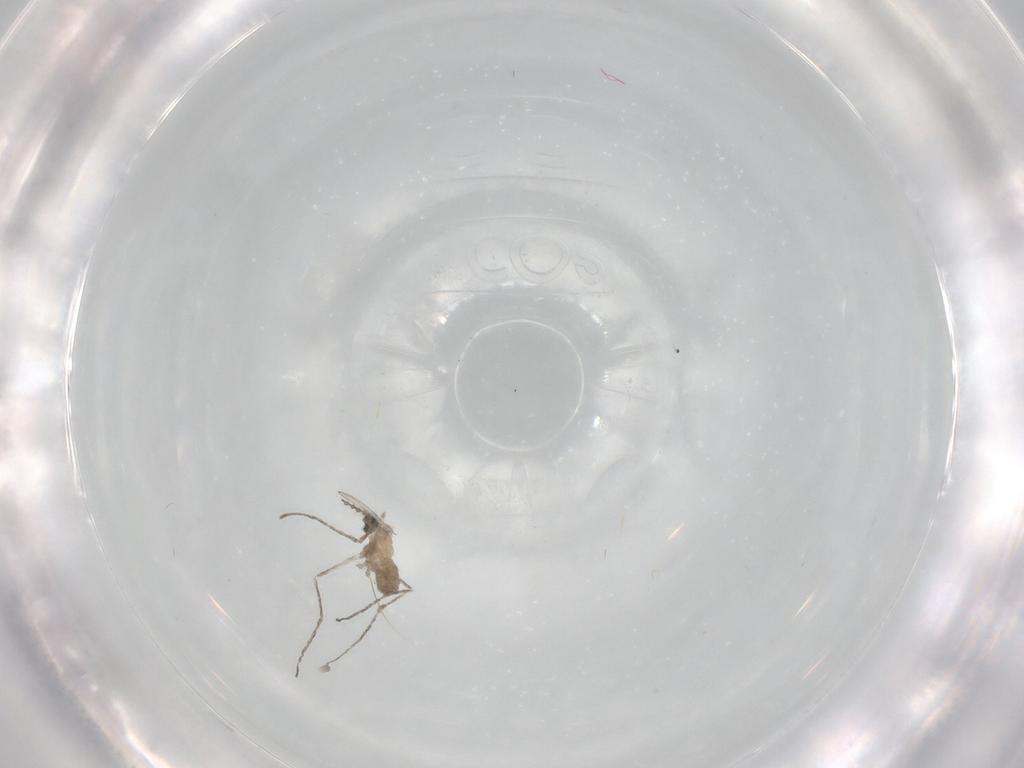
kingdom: Animalia
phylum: Arthropoda
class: Insecta
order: Diptera
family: Cecidomyiidae
